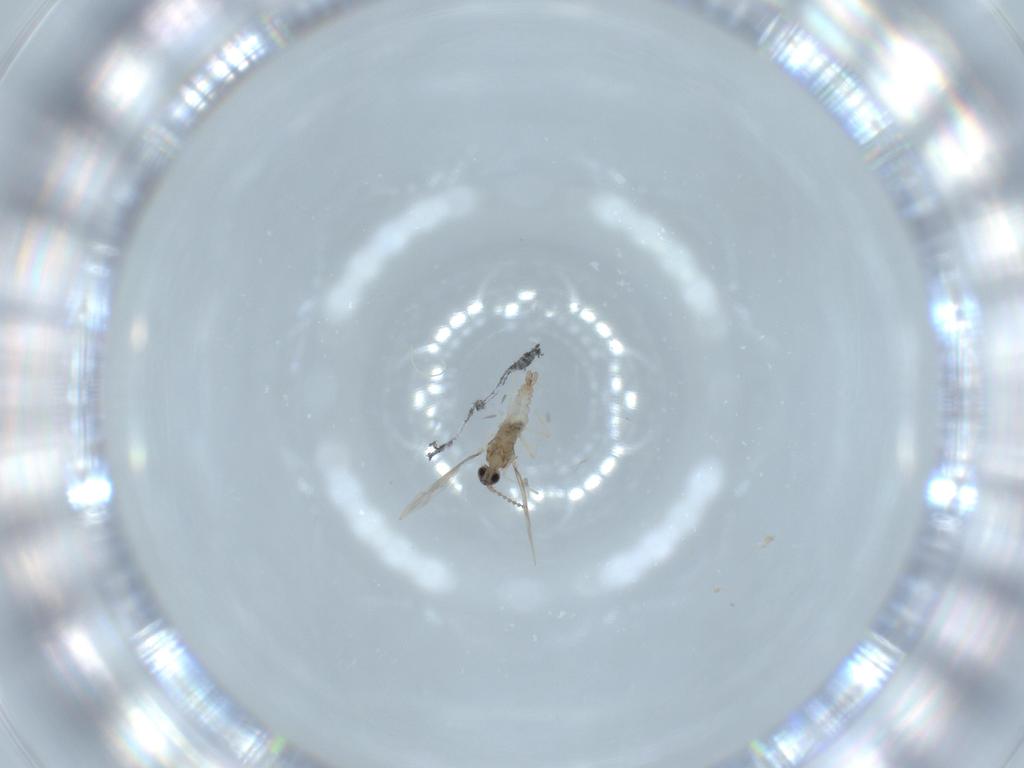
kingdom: Animalia
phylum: Arthropoda
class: Insecta
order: Diptera
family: Cecidomyiidae
